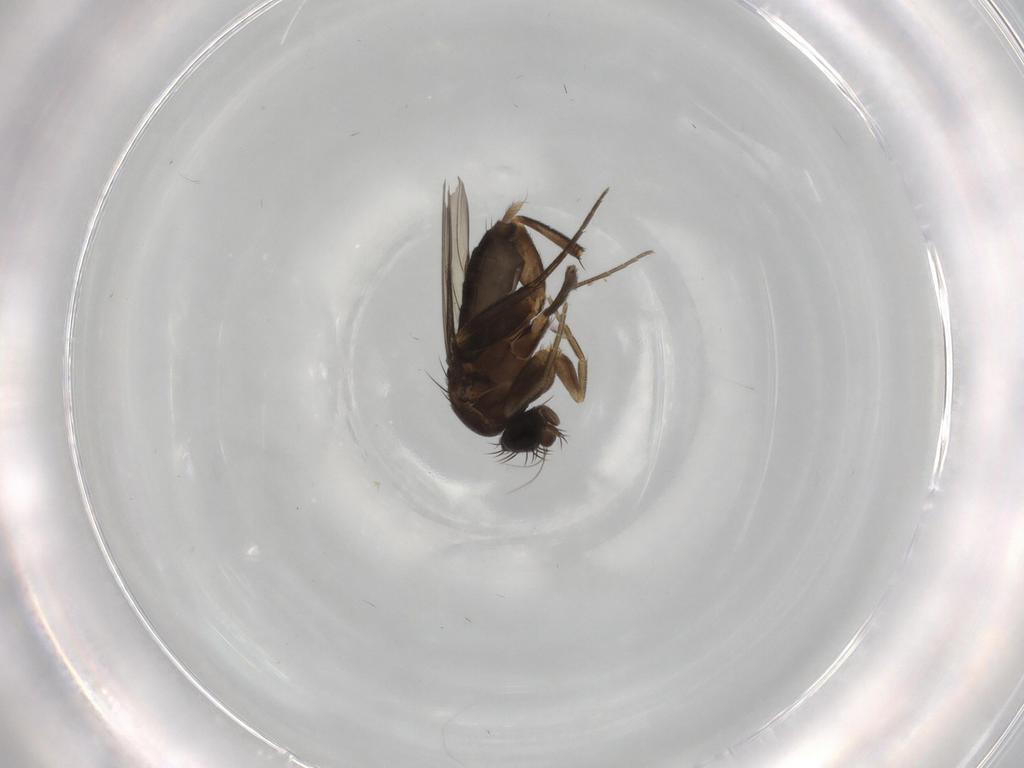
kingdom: Animalia
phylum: Arthropoda
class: Insecta
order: Diptera
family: Phoridae
